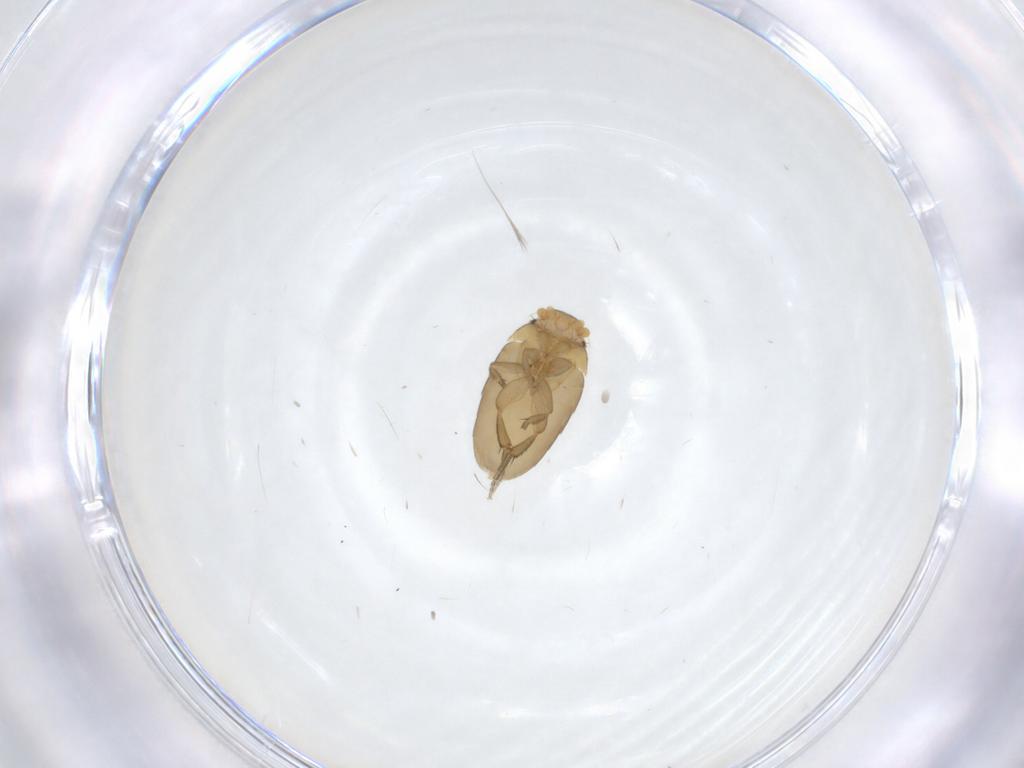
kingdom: Animalia
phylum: Arthropoda
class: Insecta
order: Diptera
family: Phoridae
